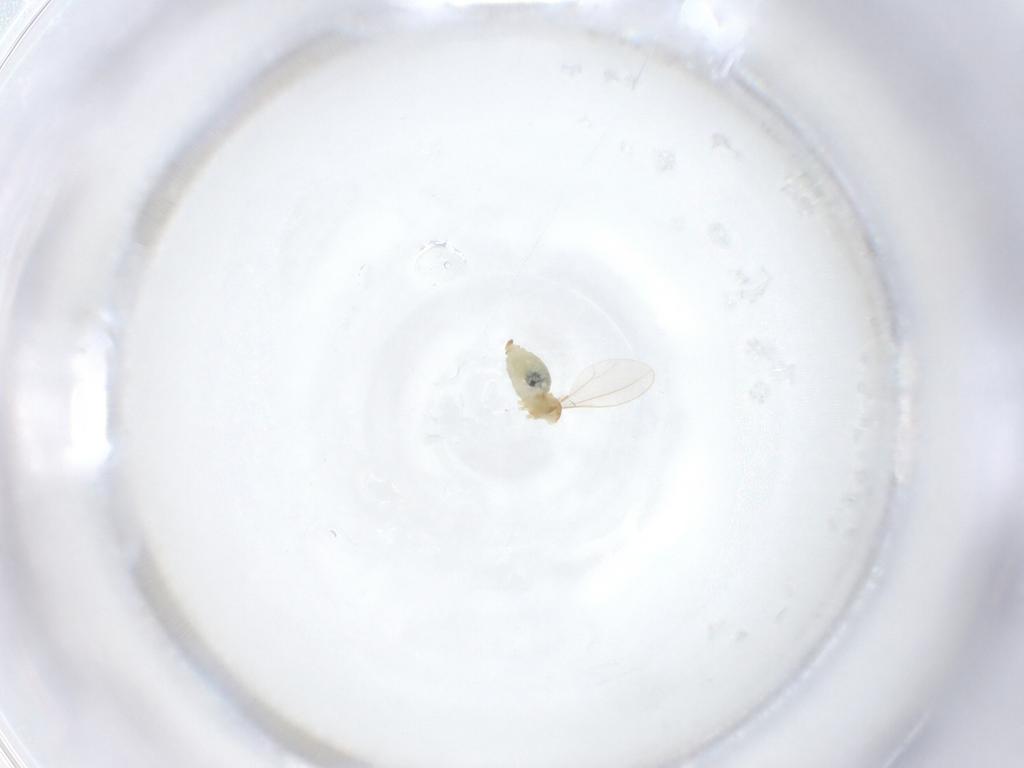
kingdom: Animalia
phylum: Arthropoda
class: Insecta
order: Diptera
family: Cecidomyiidae
